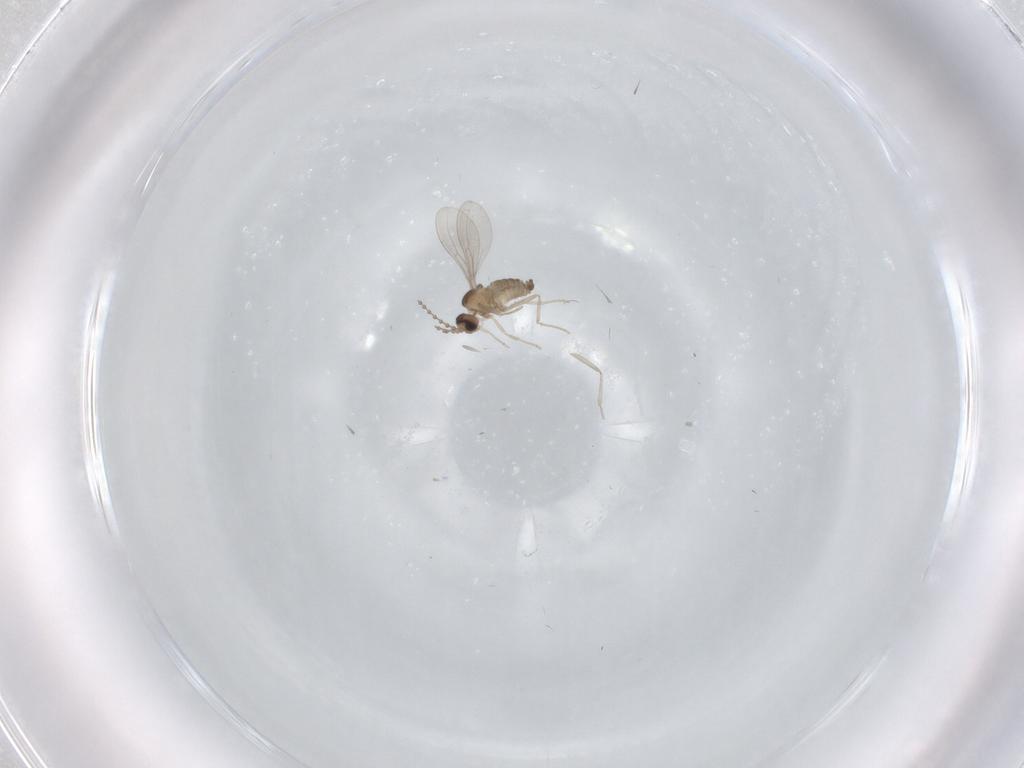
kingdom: Animalia
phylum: Arthropoda
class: Insecta
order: Diptera
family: Cecidomyiidae
